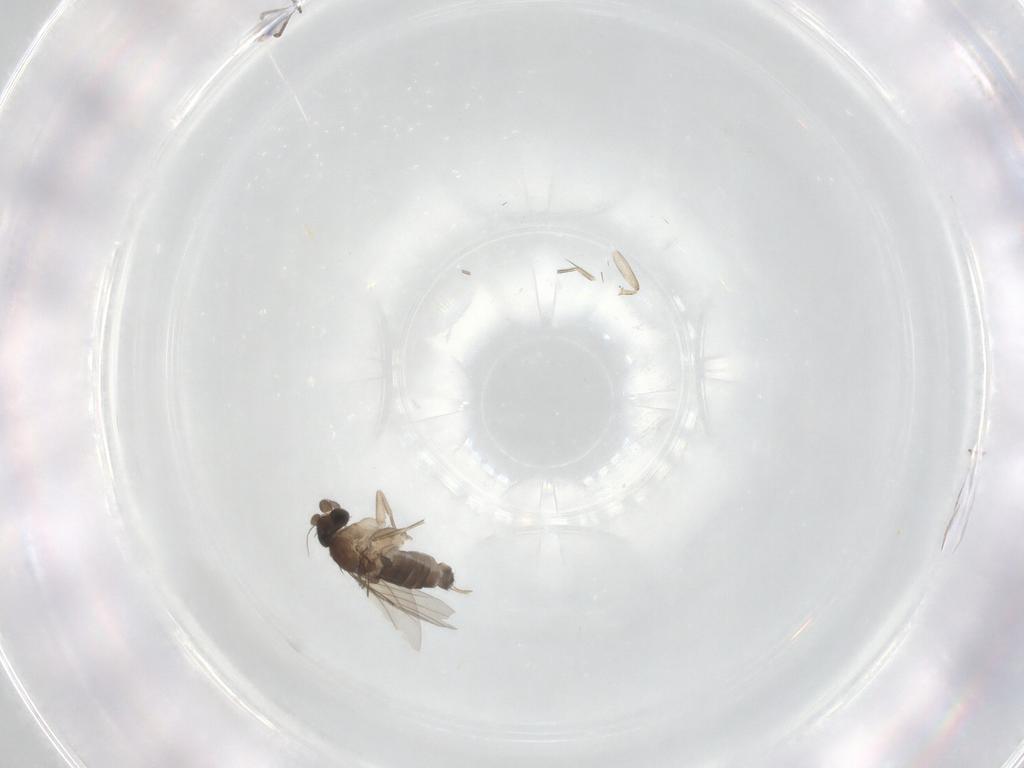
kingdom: Animalia
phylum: Arthropoda
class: Insecta
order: Diptera
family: Phoridae
